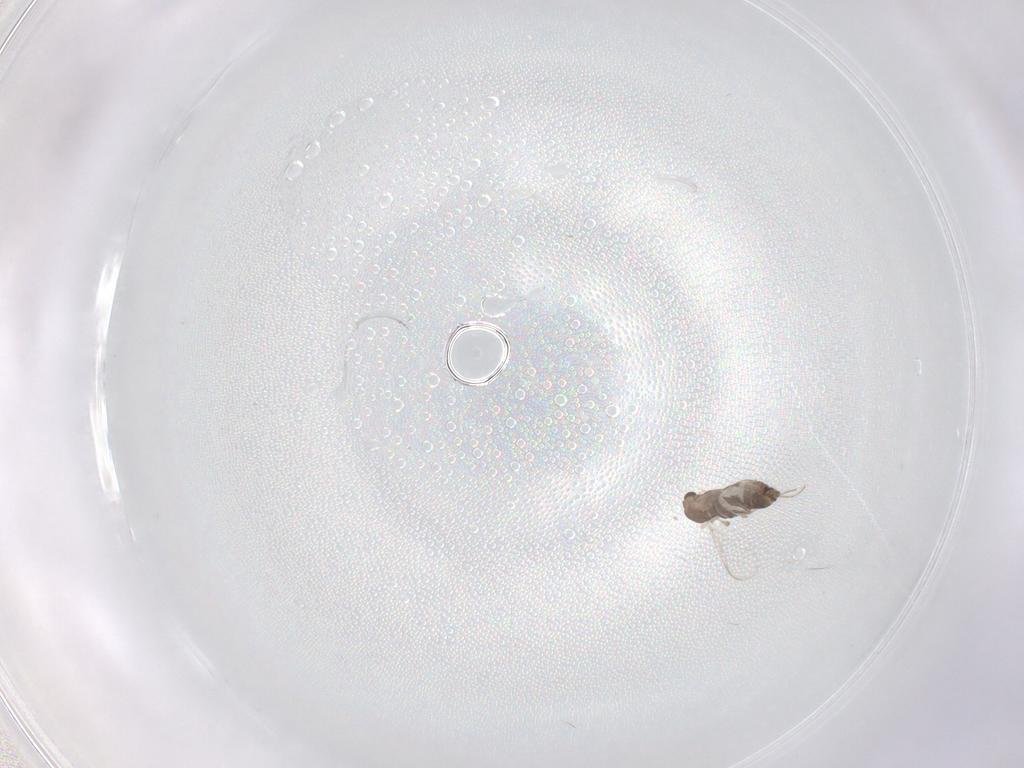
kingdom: Animalia
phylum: Arthropoda
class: Insecta
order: Diptera
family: Chironomidae
